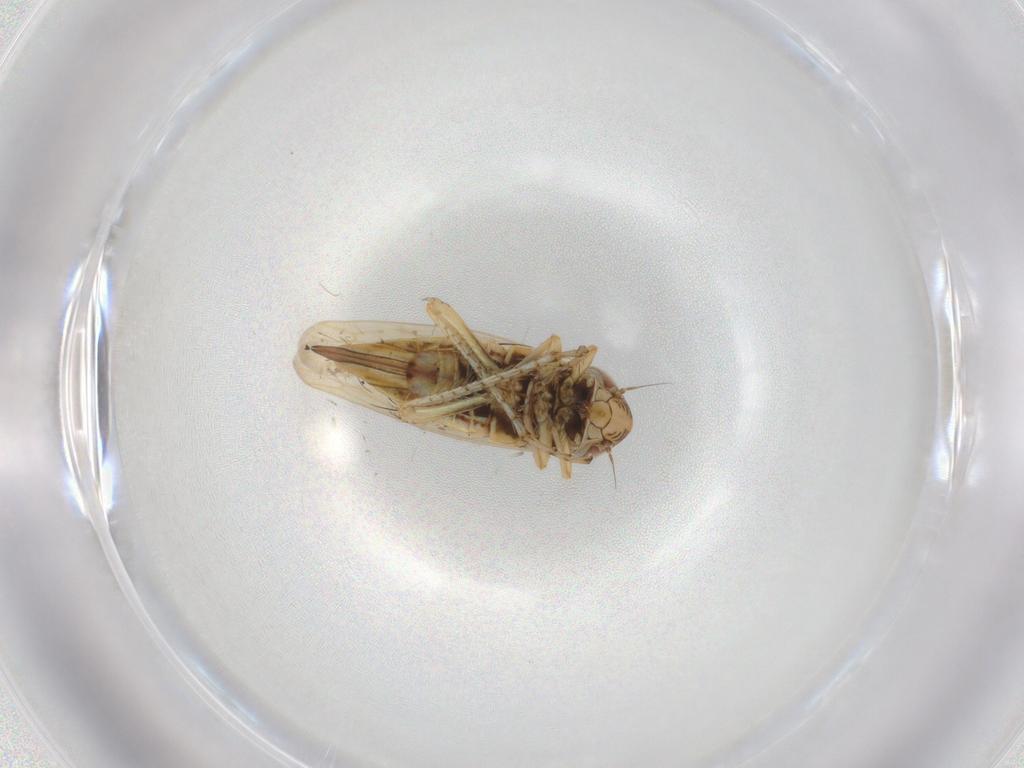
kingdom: Animalia
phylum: Arthropoda
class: Insecta
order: Hemiptera
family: Cicadellidae
